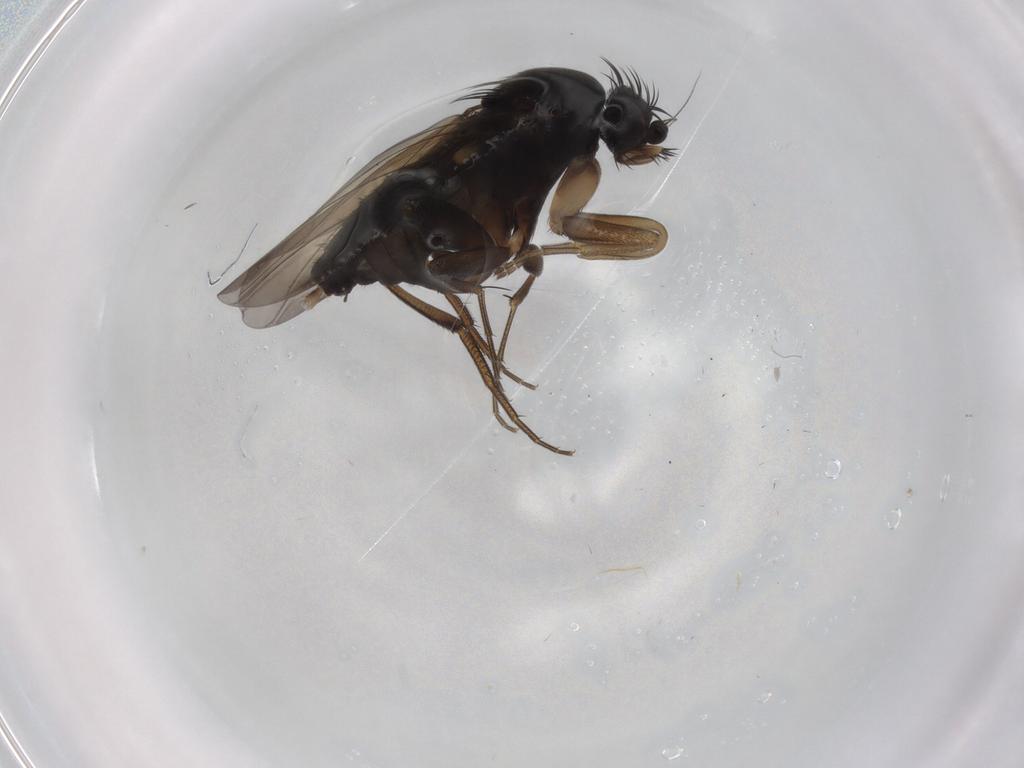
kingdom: Animalia
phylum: Arthropoda
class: Insecta
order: Diptera
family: Phoridae
